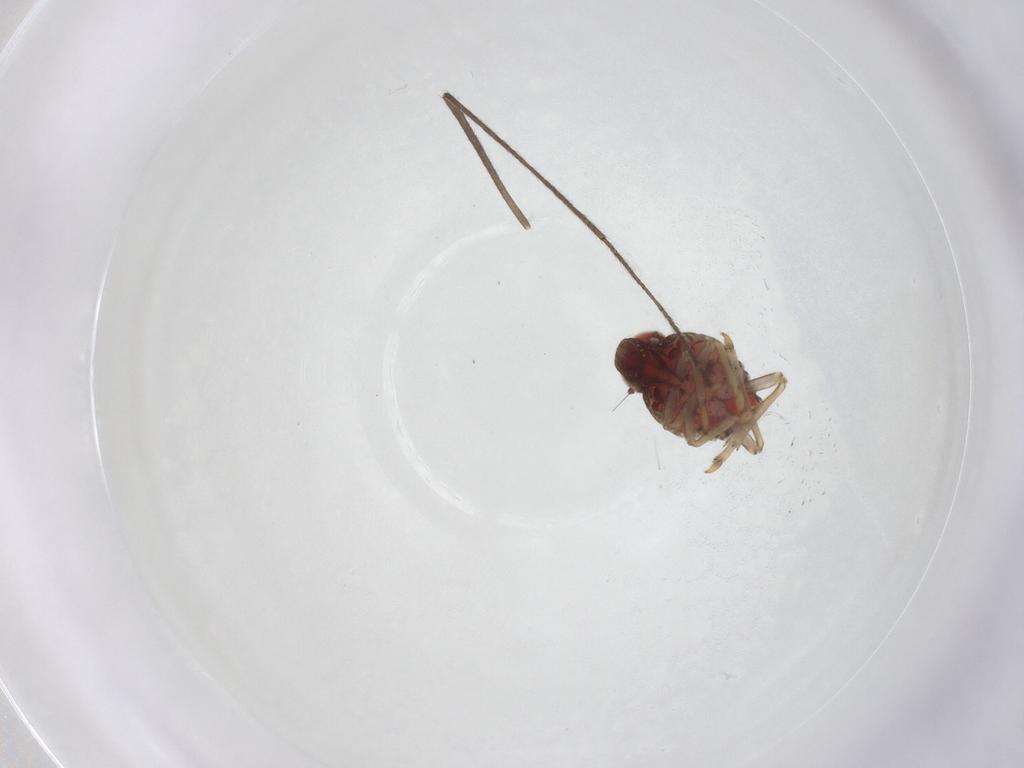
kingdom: Animalia
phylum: Arthropoda
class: Insecta
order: Hemiptera
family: Issidae
